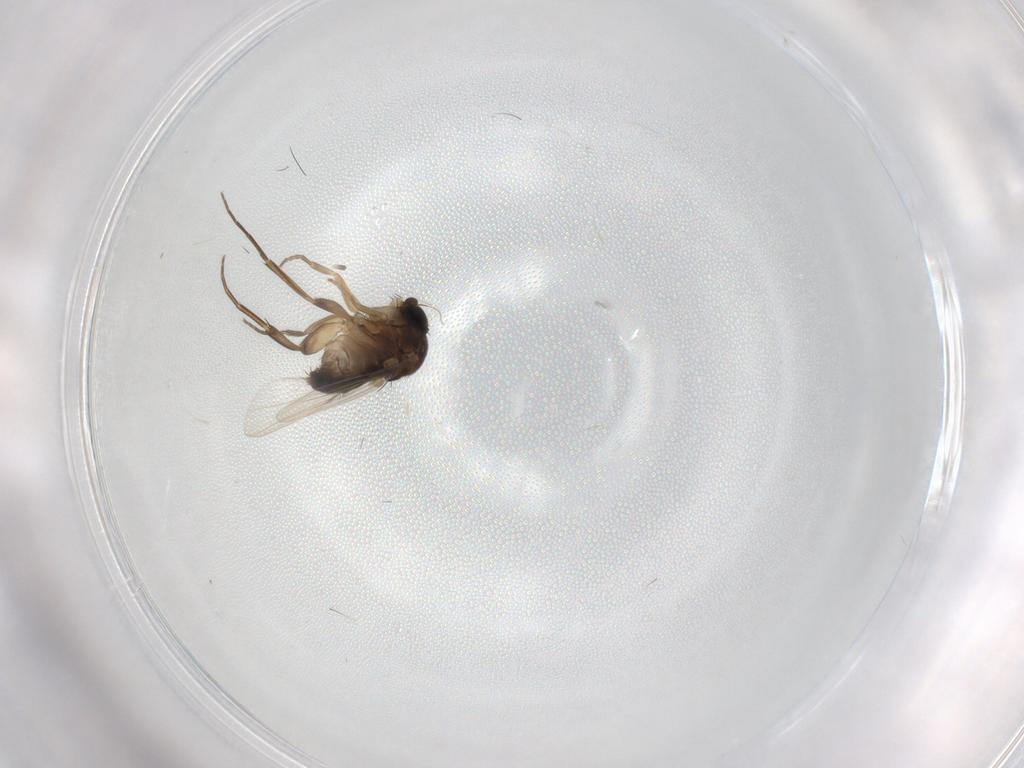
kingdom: Animalia
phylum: Arthropoda
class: Insecta
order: Diptera
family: Phoridae
